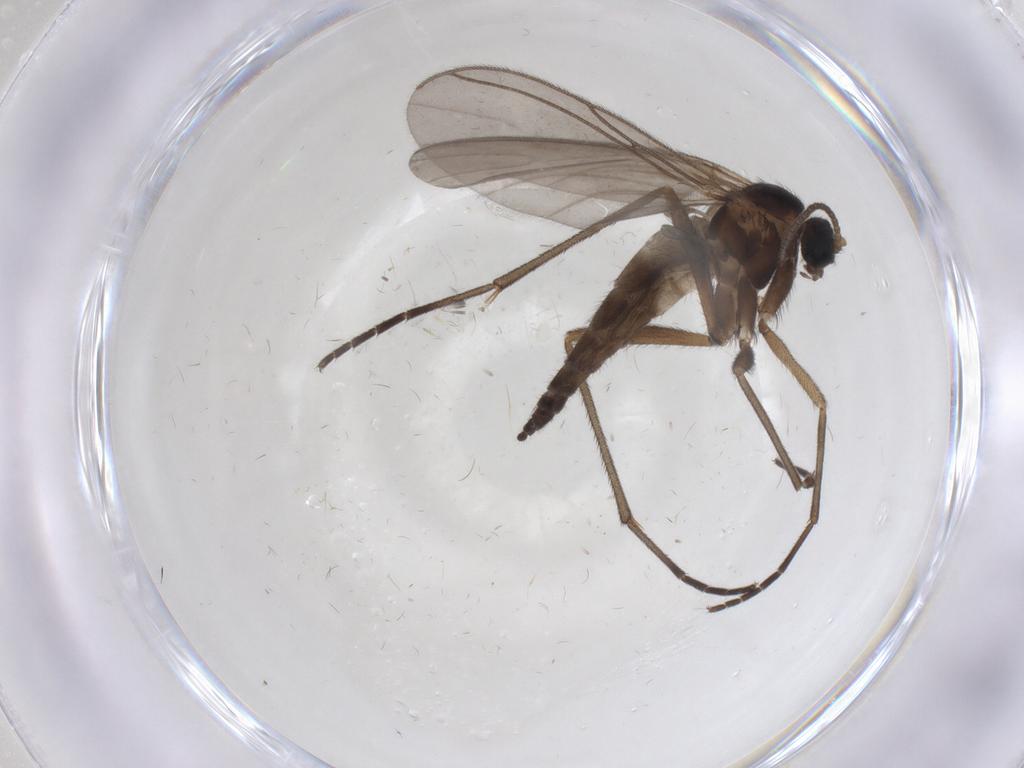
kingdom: Animalia
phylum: Arthropoda
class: Insecta
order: Diptera
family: Sciaridae
